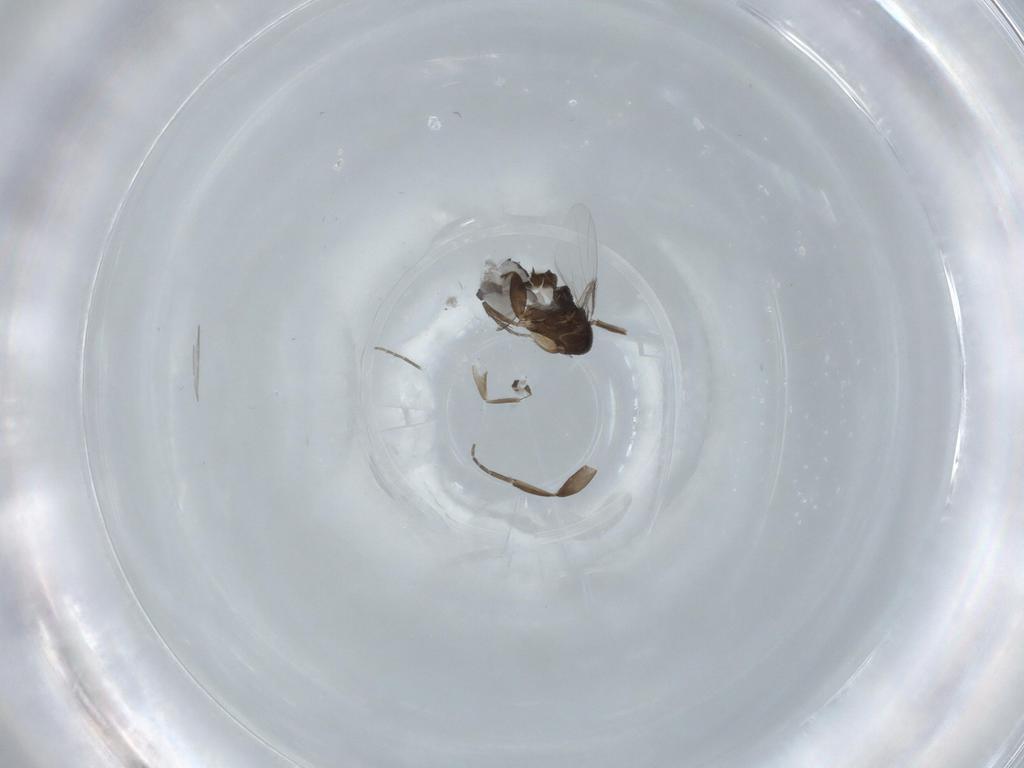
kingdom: Animalia
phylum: Arthropoda
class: Insecta
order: Diptera
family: Phoridae
